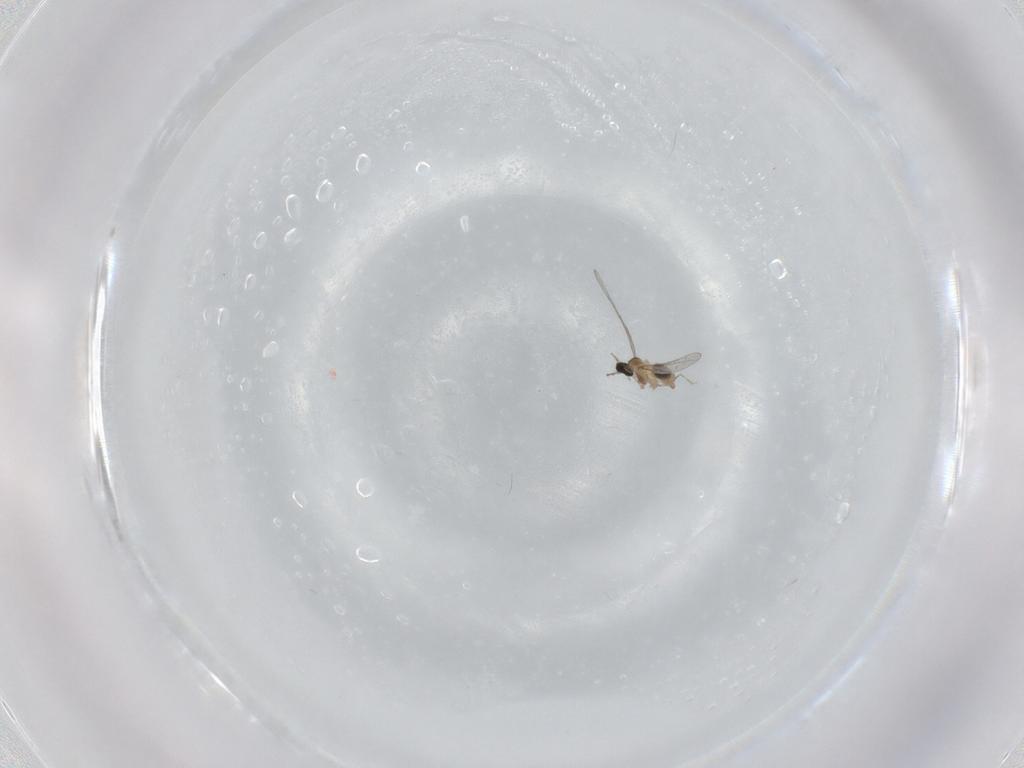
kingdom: Animalia
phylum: Arthropoda
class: Insecta
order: Diptera
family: Cecidomyiidae
